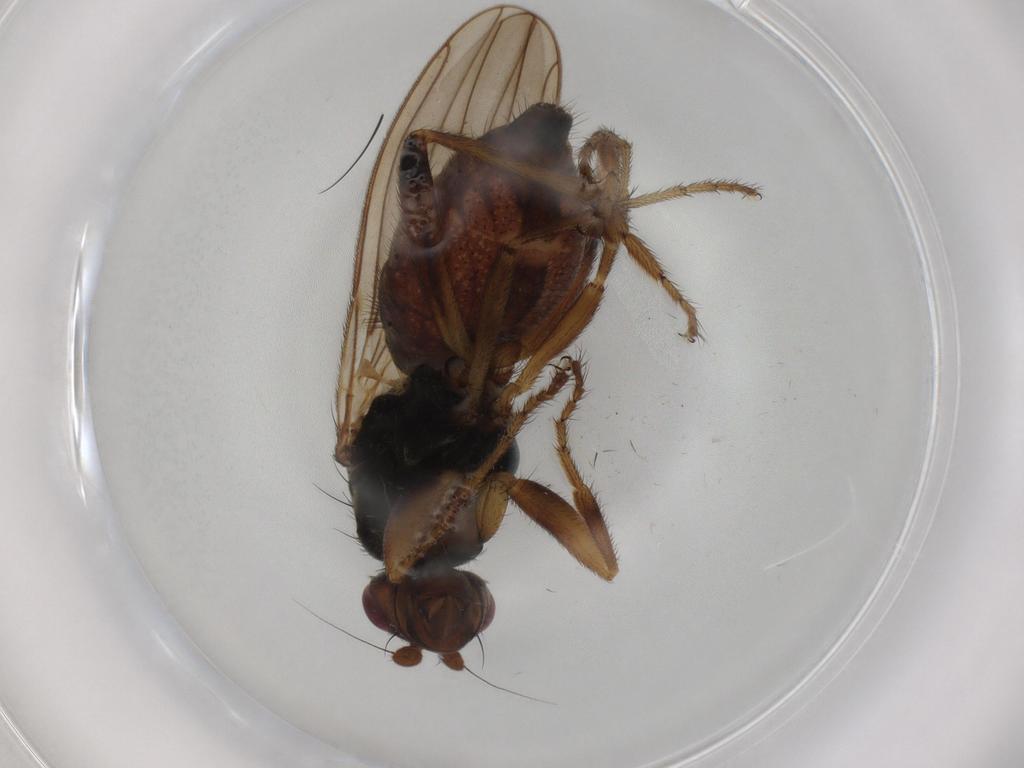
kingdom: Animalia
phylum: Arthropoda
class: Insecta
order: Diptera
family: Sphaeroceridae
